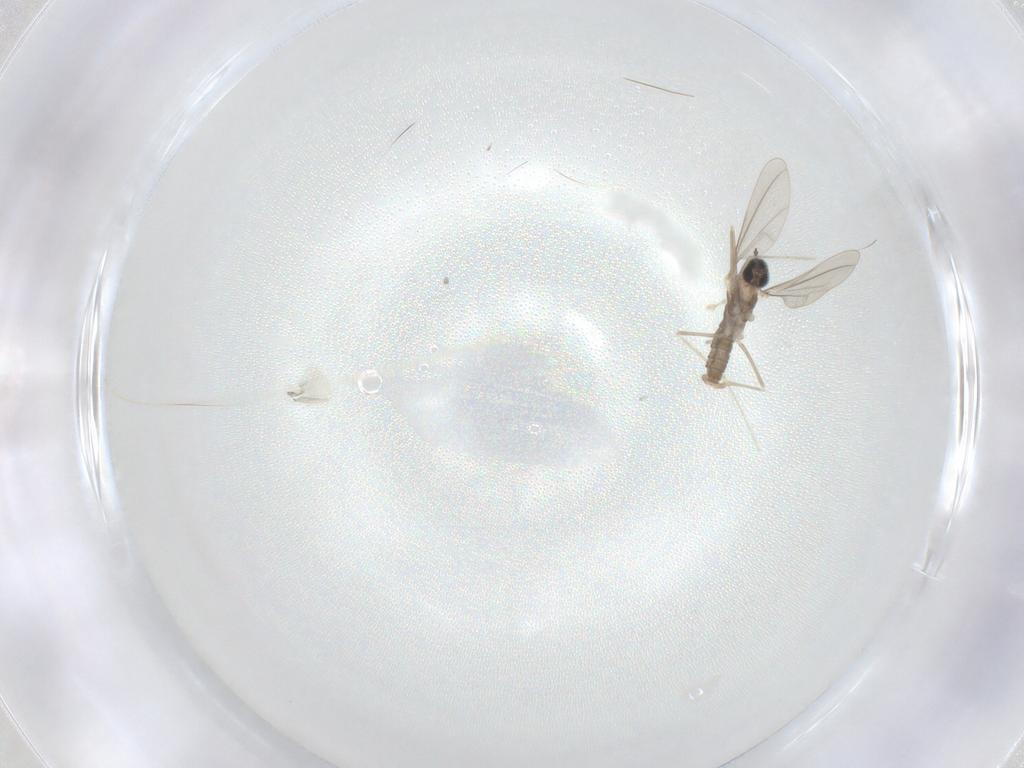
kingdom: Animalia
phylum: Arthropoda
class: Insecta
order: Diptera
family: Cecidomyiidae
